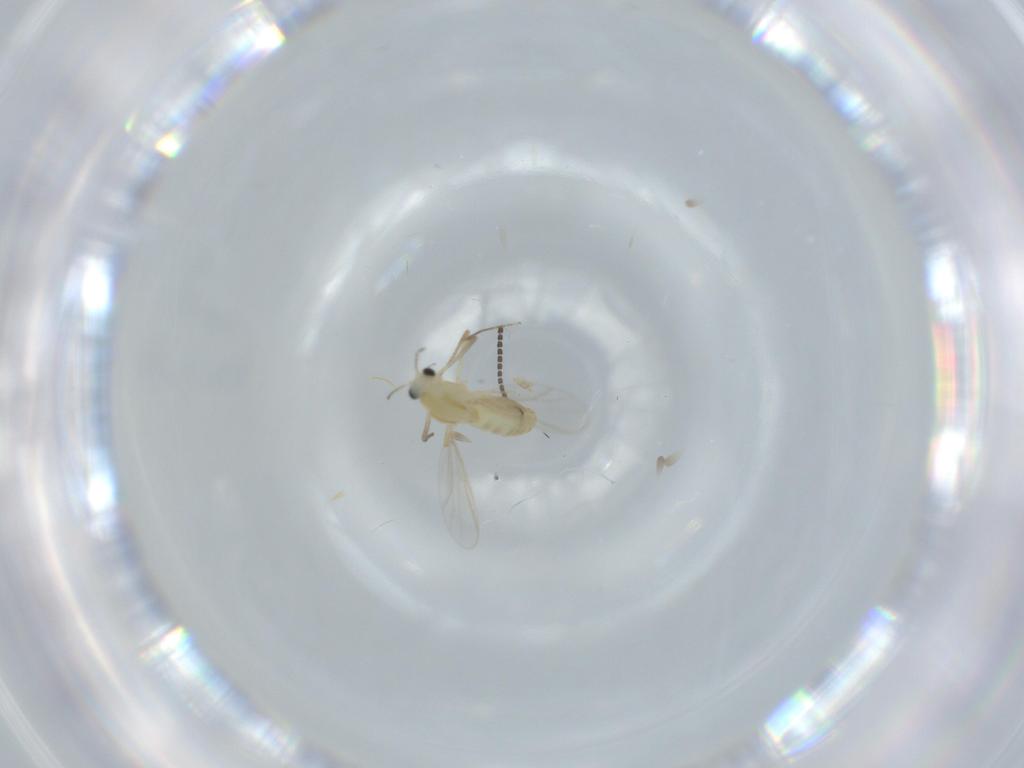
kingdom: Animalia
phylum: Arthropoda
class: Insecta
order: Diptera
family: Chironomidae
